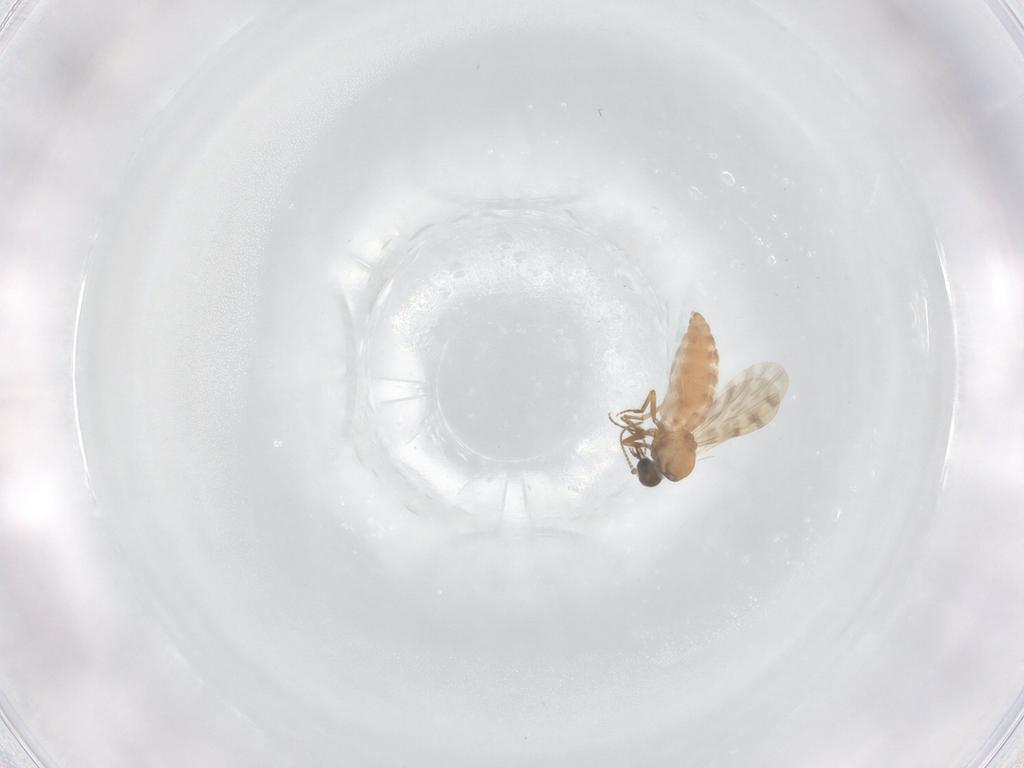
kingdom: Animalia
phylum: Arthropoda
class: Insecta
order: Diptera
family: Ceratopogonidae
